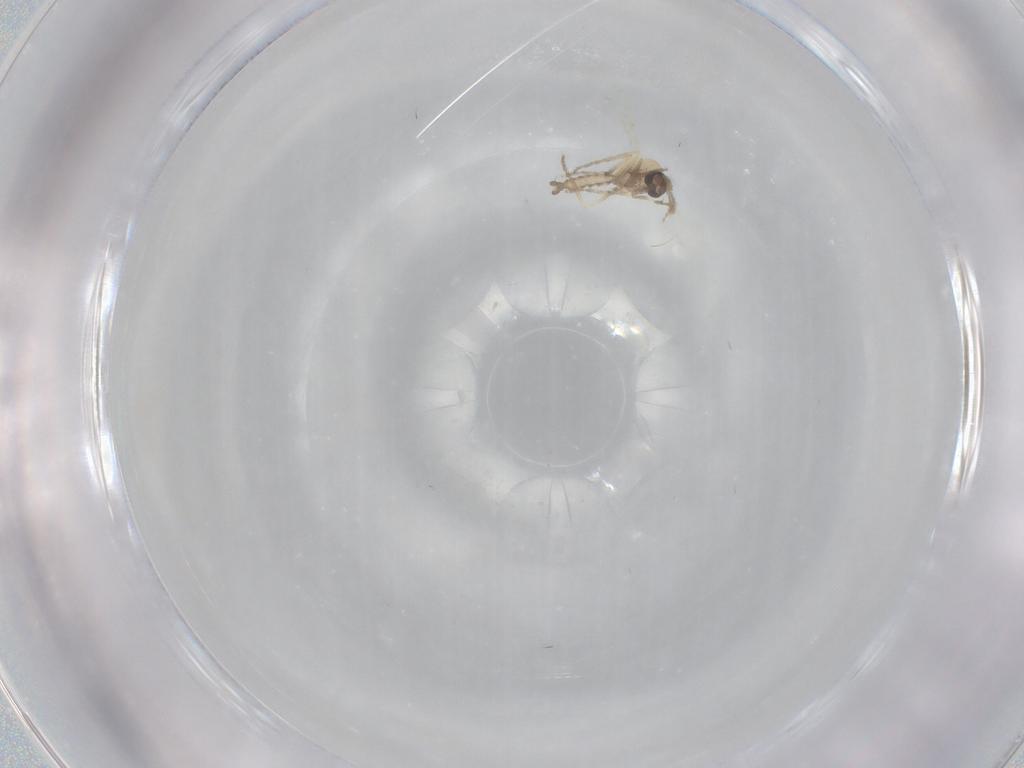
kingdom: Animalia
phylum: Arthropoda
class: Insecta
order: Diptera
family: Ceratopogonidae
